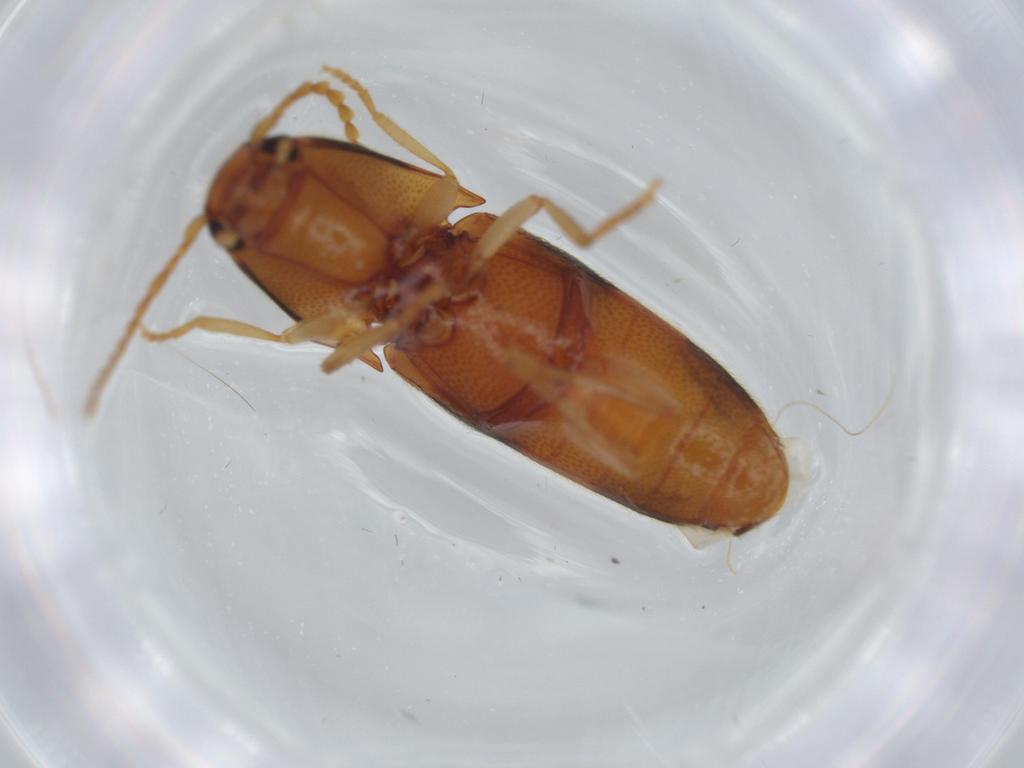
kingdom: Animalia
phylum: Arthropoda
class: Insecta
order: Coleoptera
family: Elateridae
